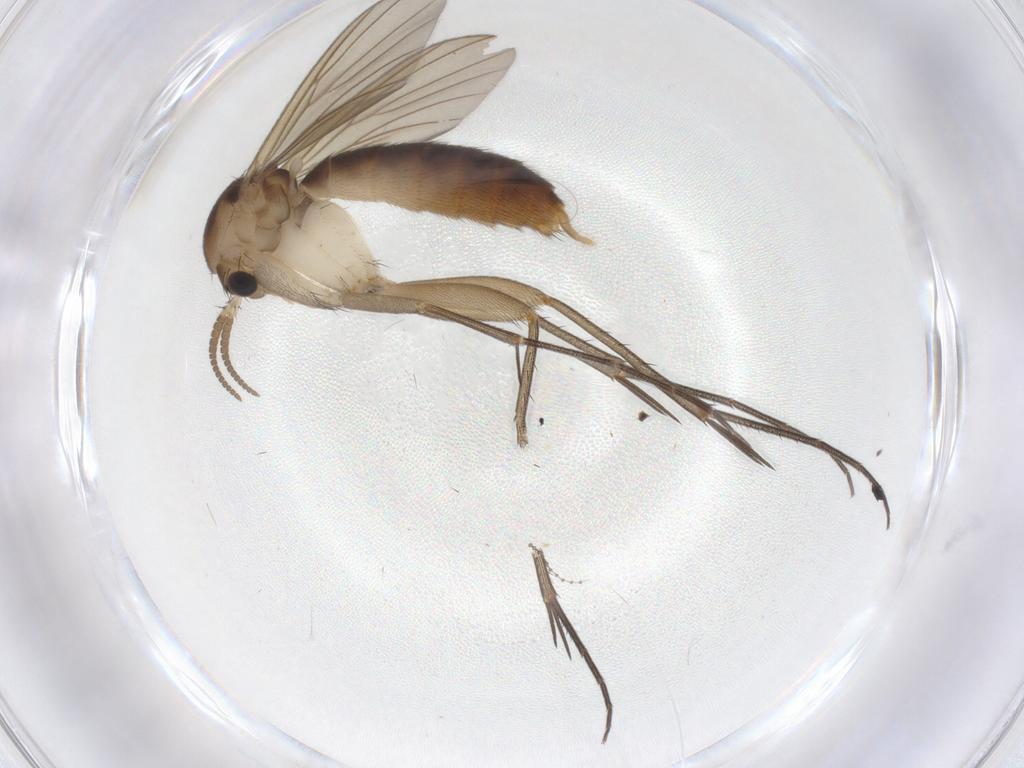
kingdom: Animalia
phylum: Arthropoda
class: Insecta
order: Diptera
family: Mycetophilidae
